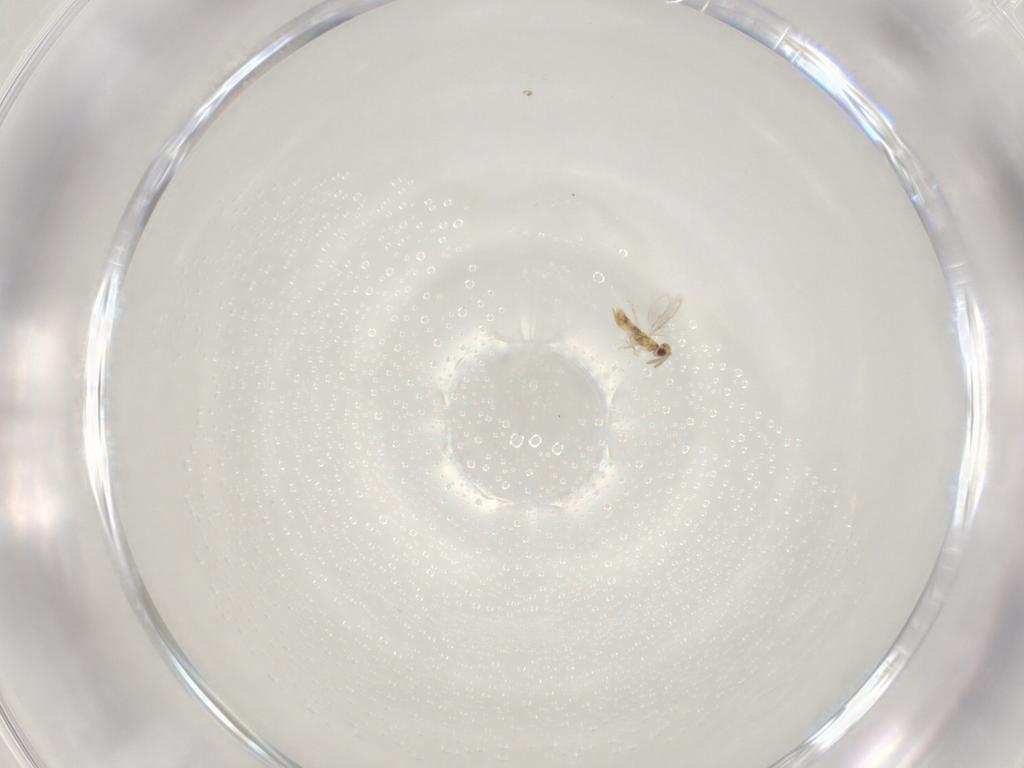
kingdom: Animalia
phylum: Arthropoda
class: Insecta
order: Hymenoptera
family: Aphelinidae
